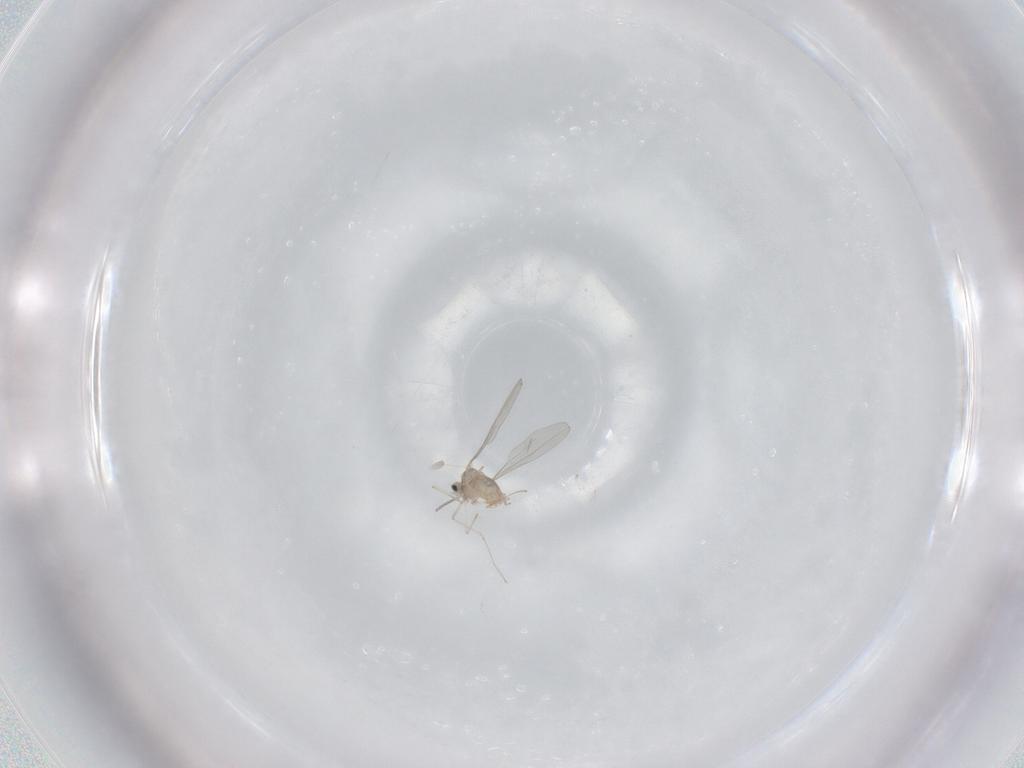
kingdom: Animalia
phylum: Arthropoda
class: Insecta
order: Diptera
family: Cecidomyiidae
